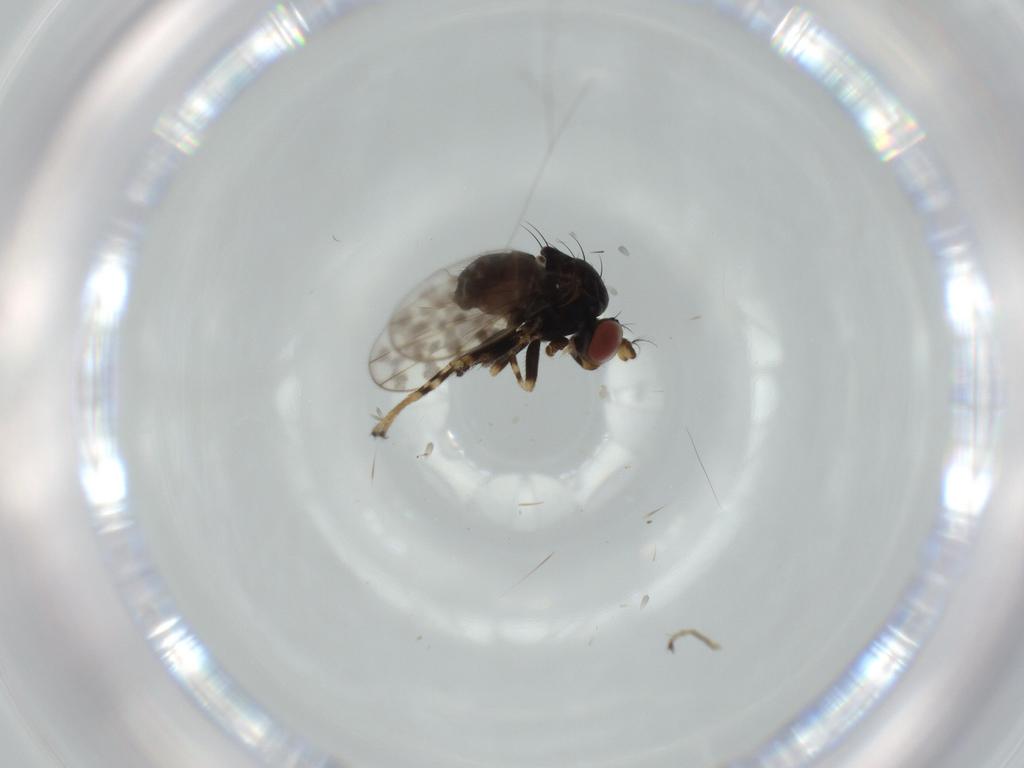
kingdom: Animalia
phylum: Arthropoda
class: Insecta
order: Diptera
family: Ephydridae
